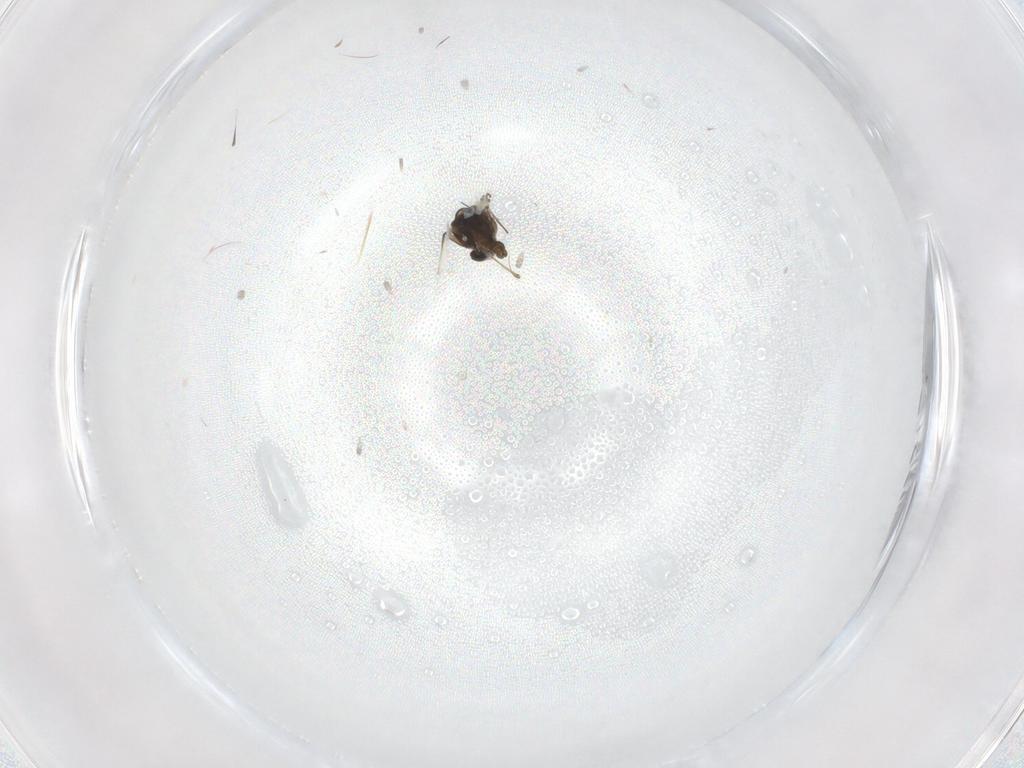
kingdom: Animalia
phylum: Arthropoda
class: Insecta
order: Diptera
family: Chironomidae
